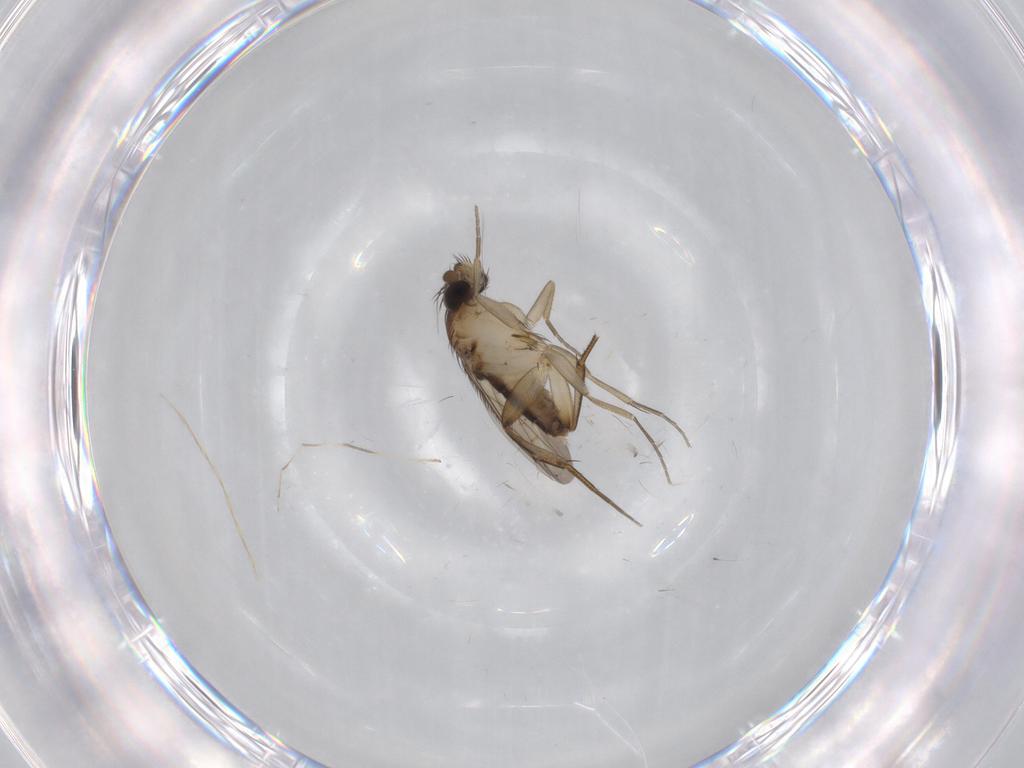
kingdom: Animalia
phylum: Arthropoda
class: Insecta
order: Diptera
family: Phoridae
